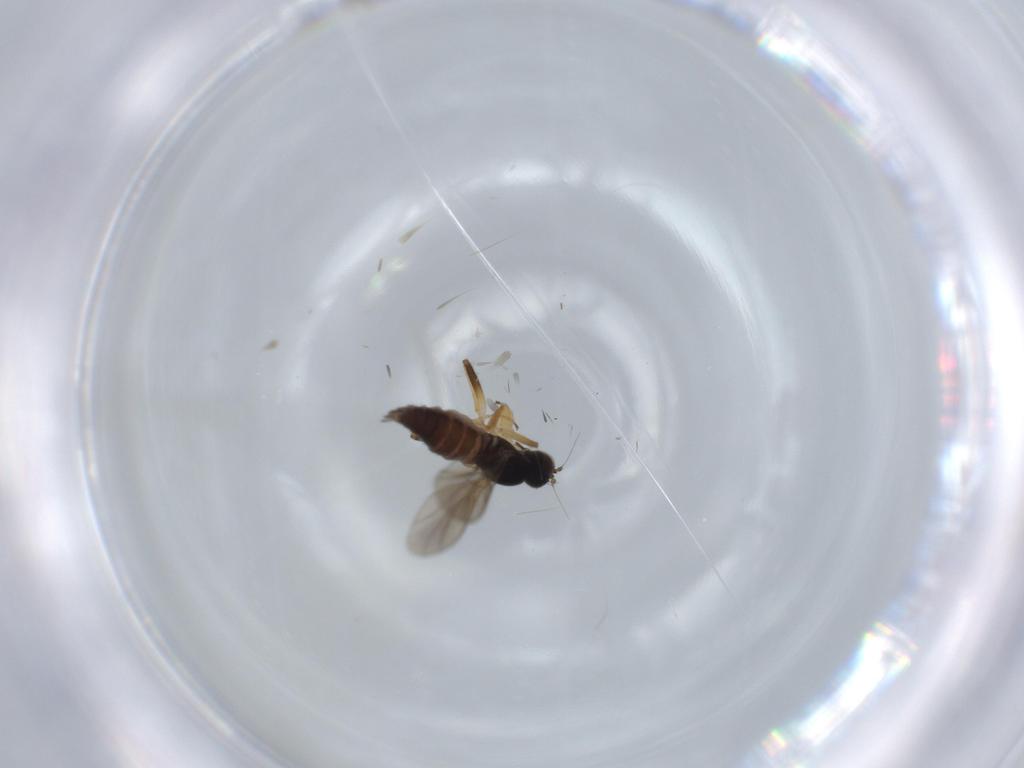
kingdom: Animalia
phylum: Arthropoda
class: Insecta
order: Diptera
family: Hybotidae
